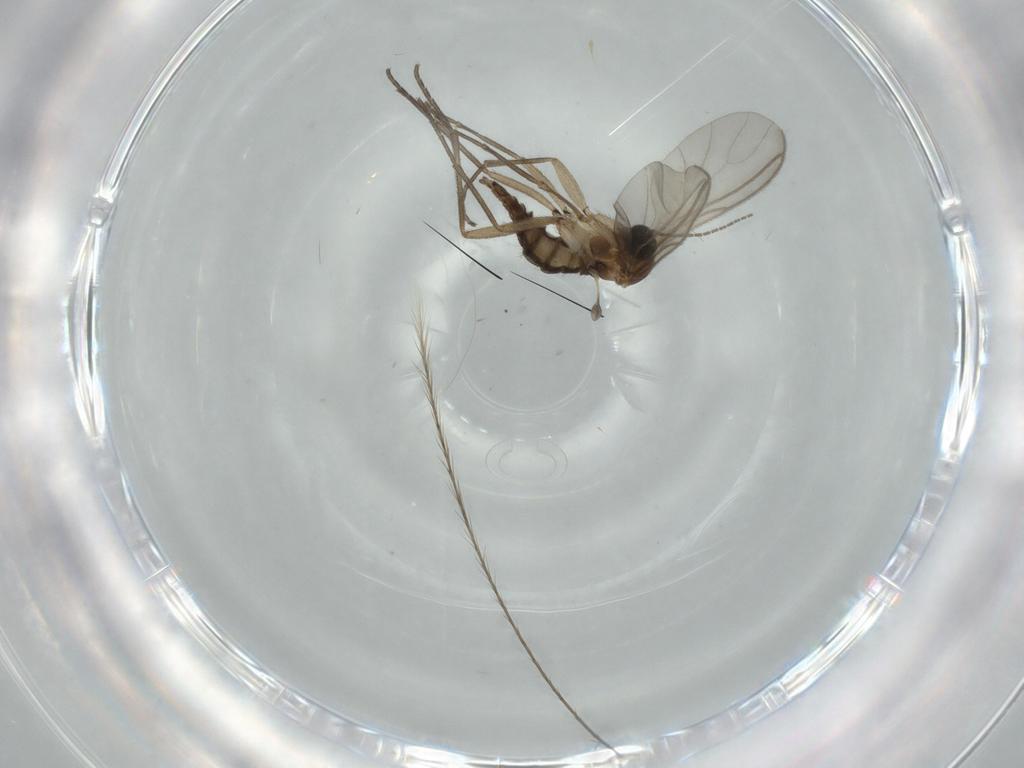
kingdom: Animalia
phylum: Arthropoda
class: Insecta
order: Diptera
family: Sciaridae
